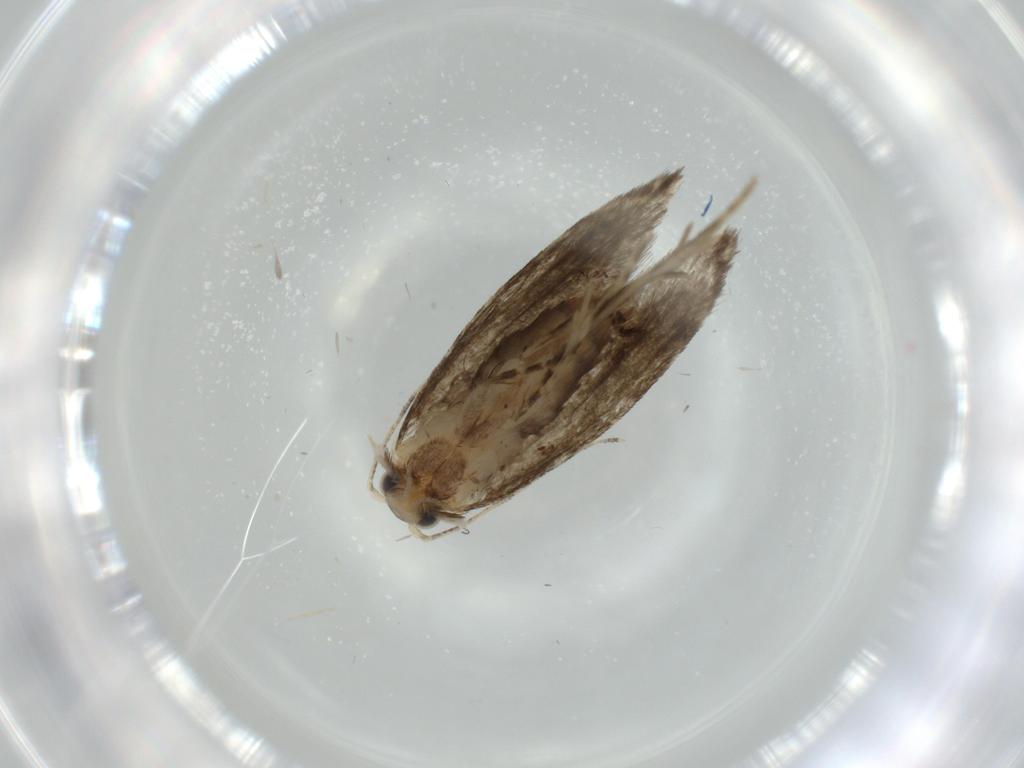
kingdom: Animalia
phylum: Arthropoda
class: Insecta
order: Lepidoptera
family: Tineidae
